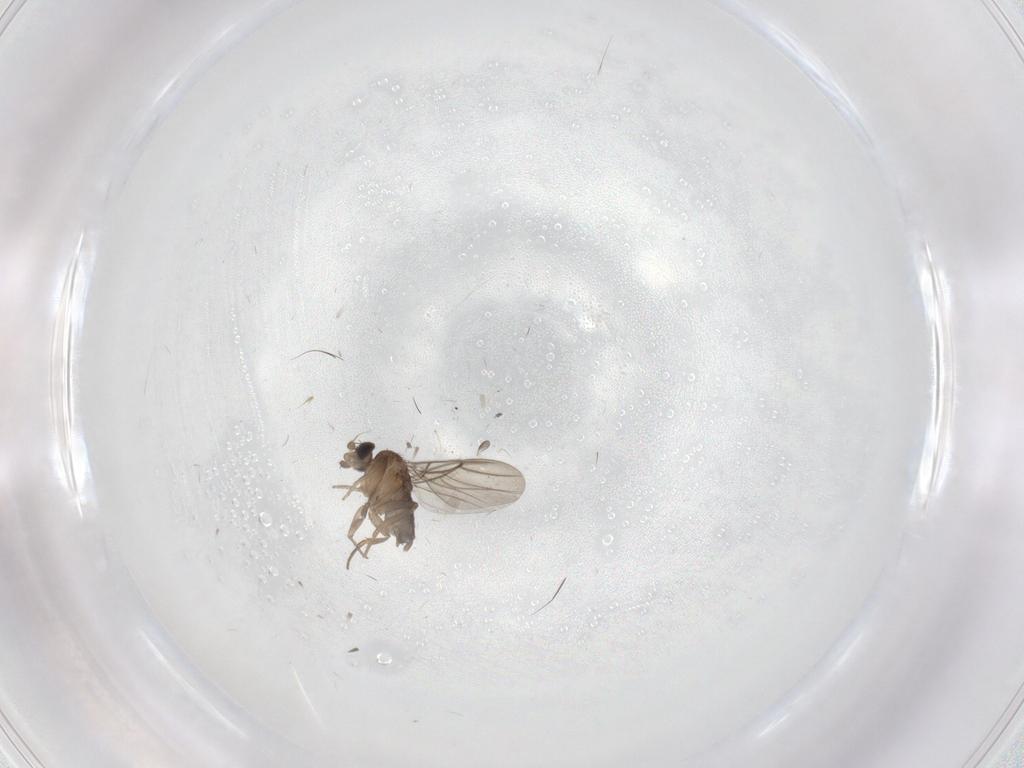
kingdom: Animalia
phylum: Arthropoda
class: Insecta
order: Diptera
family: Phoridae
